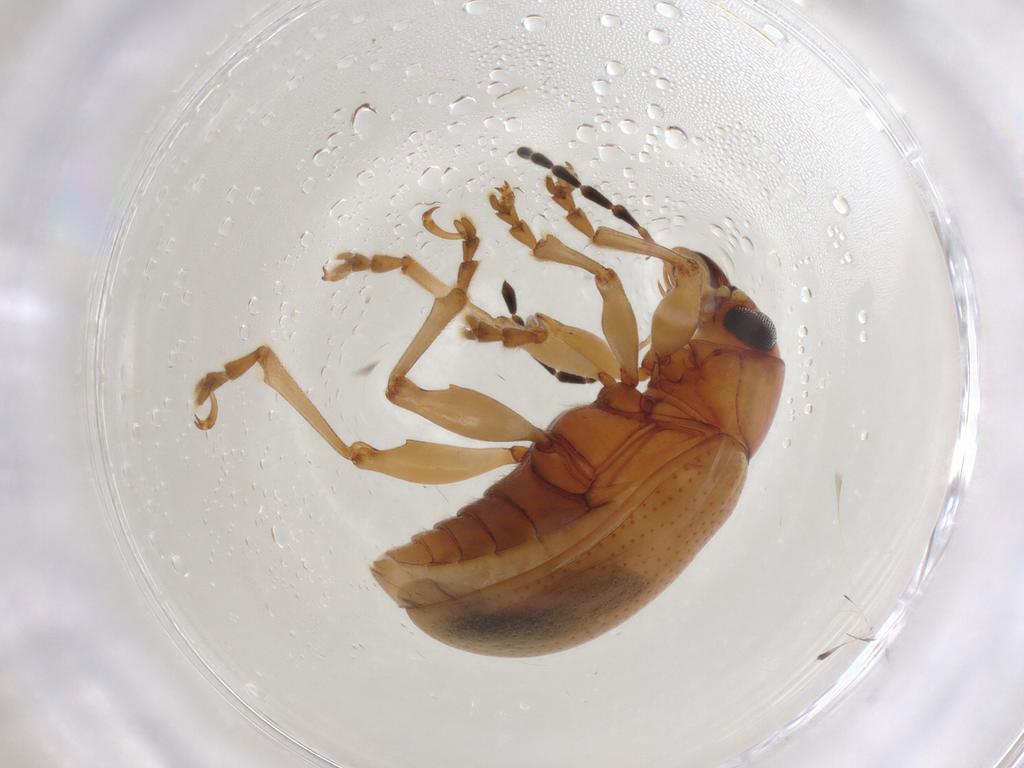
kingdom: Animalia
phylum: Arthropoda
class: Insecta
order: Coleoptera
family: Chrysomelidae
